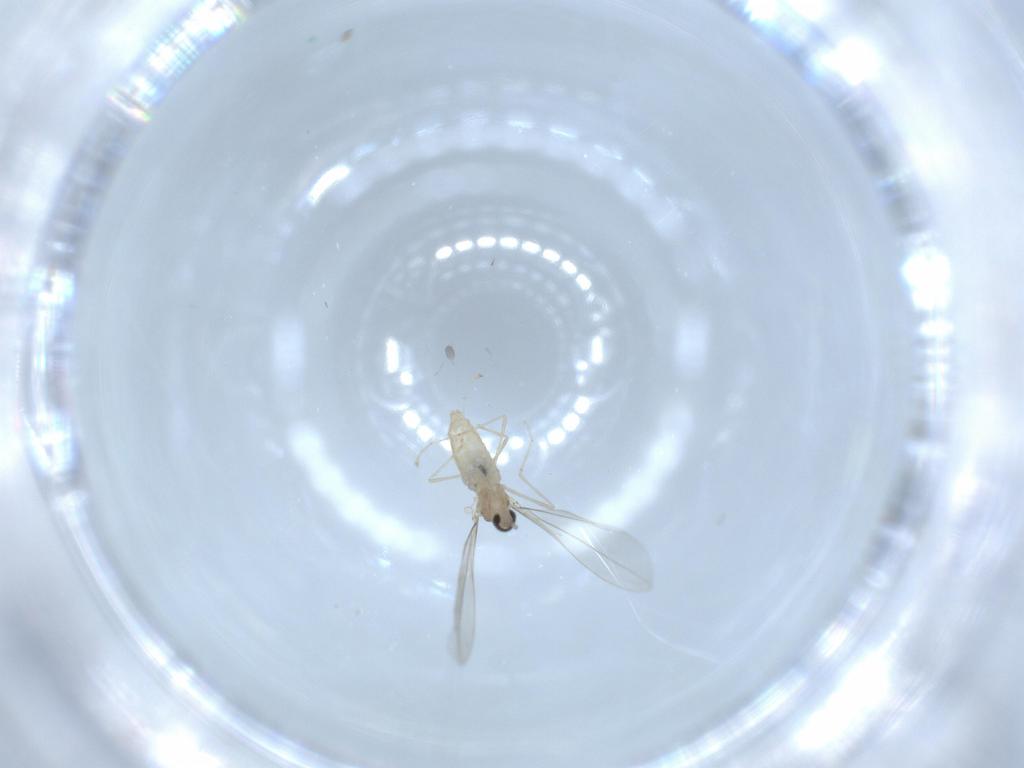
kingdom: Animalia
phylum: Arthropoda
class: Insecta
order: Diptera
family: Cecidomyiidae
